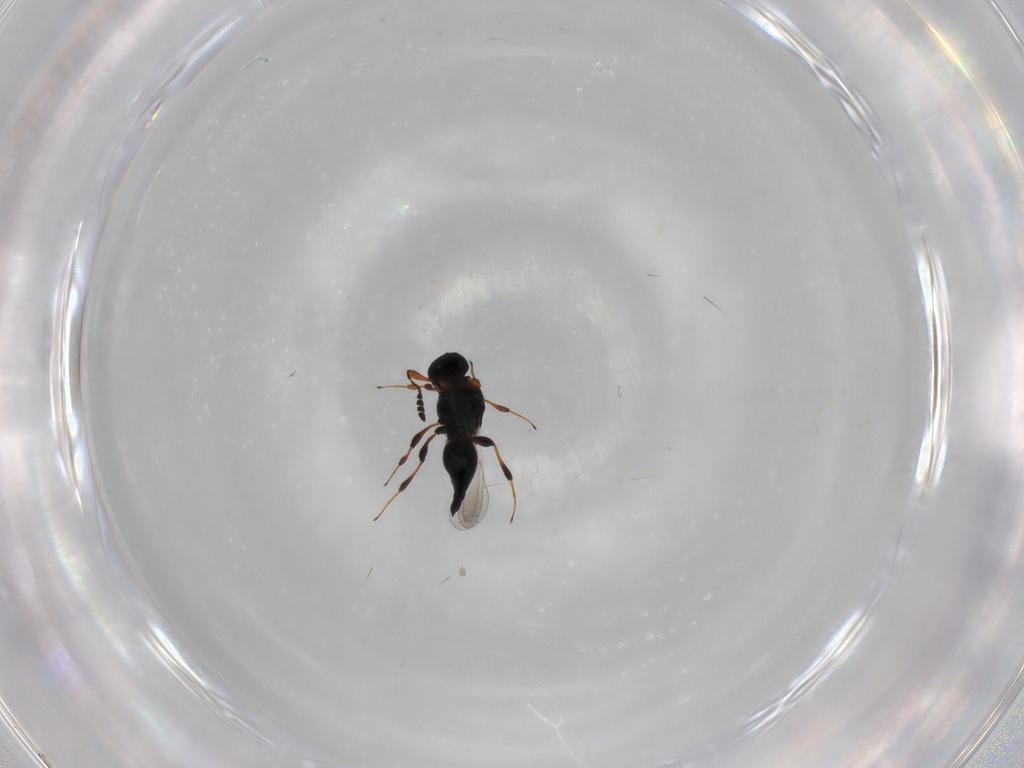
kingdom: Animalia
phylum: Arthropoda
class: Insecta
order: Hymenoptera
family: Platygastridae
